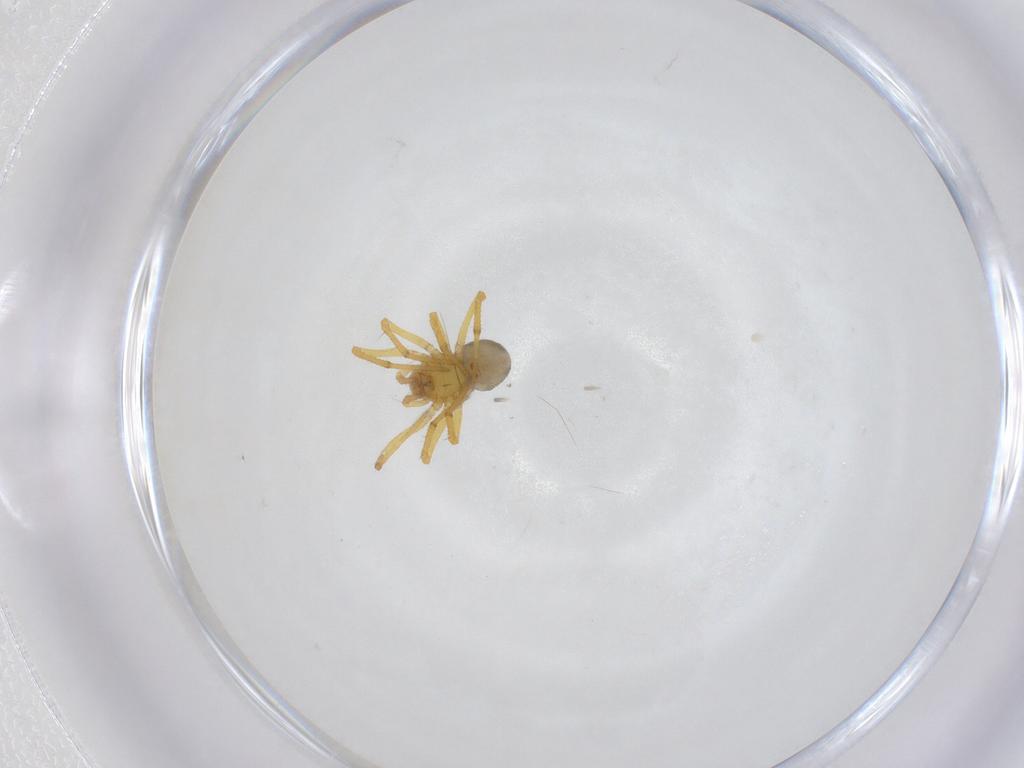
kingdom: Animalia
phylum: Arthropoda
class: Arachnida
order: Araneae
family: Theridiidae
